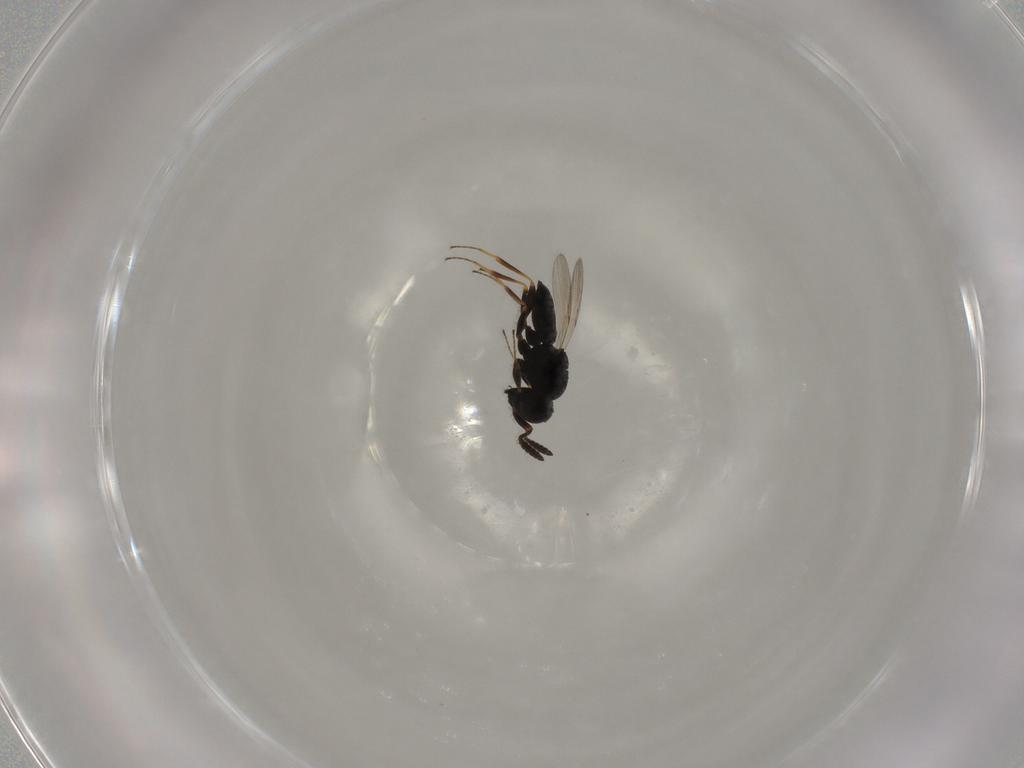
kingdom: Animalia
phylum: Arthropoda
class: Insecta
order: Hymenoptera
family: Scelionidae
